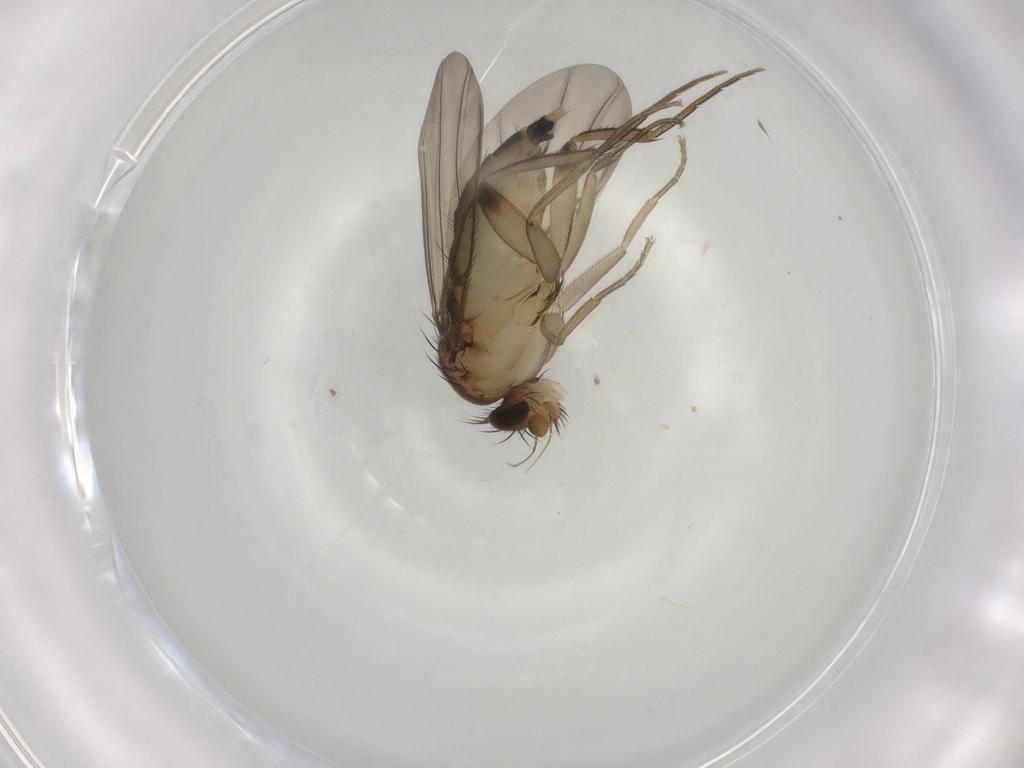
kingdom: Animalia
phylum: Arthropoda
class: Insecta
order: Diptera
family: Phoridae
